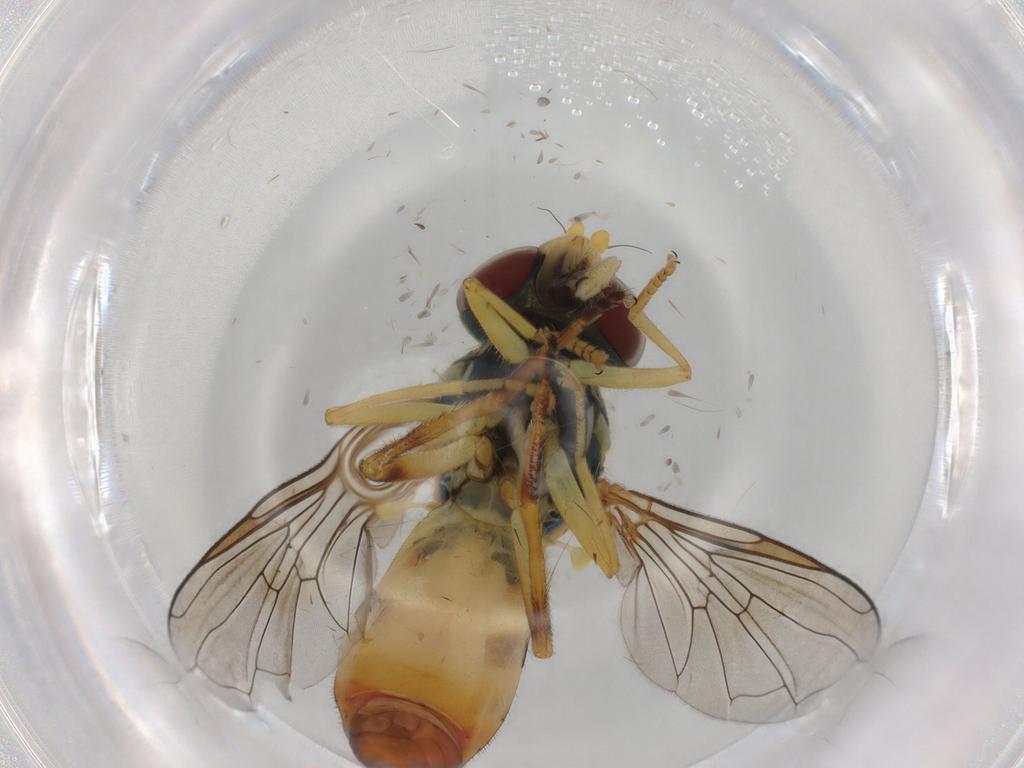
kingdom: Animalia
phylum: Arthropoda
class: Insecta
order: Diptera
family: Syrphidae
